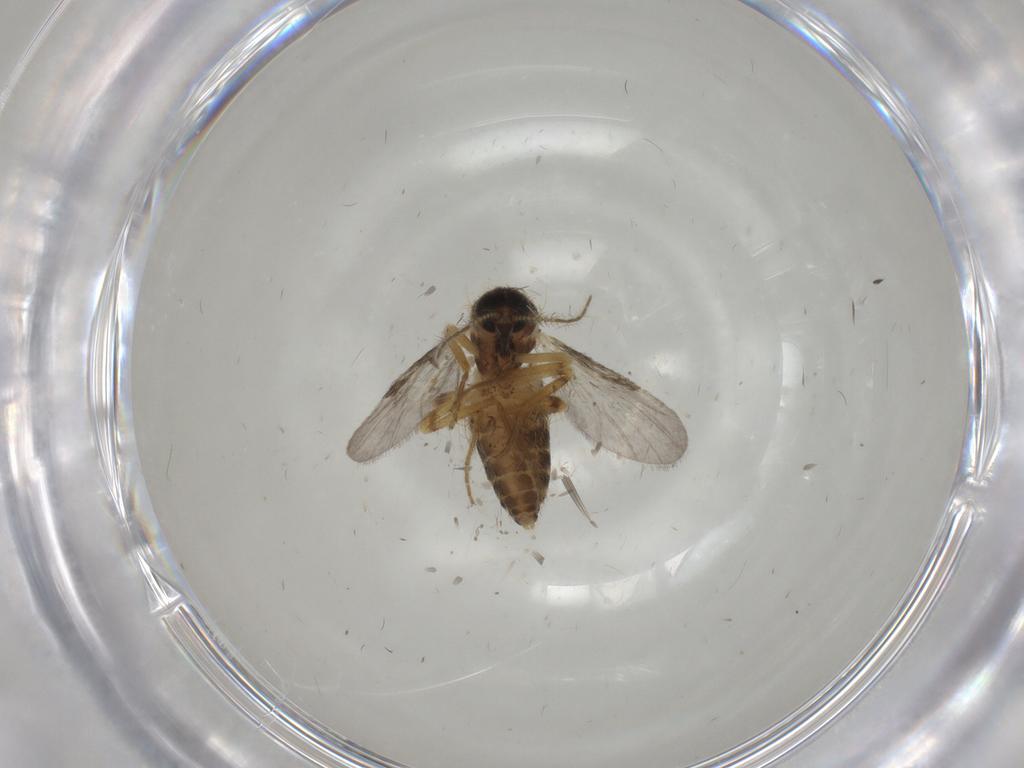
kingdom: Animalia
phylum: Arthropoda
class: Insecta
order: Diptera
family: Ceratopogonidae
